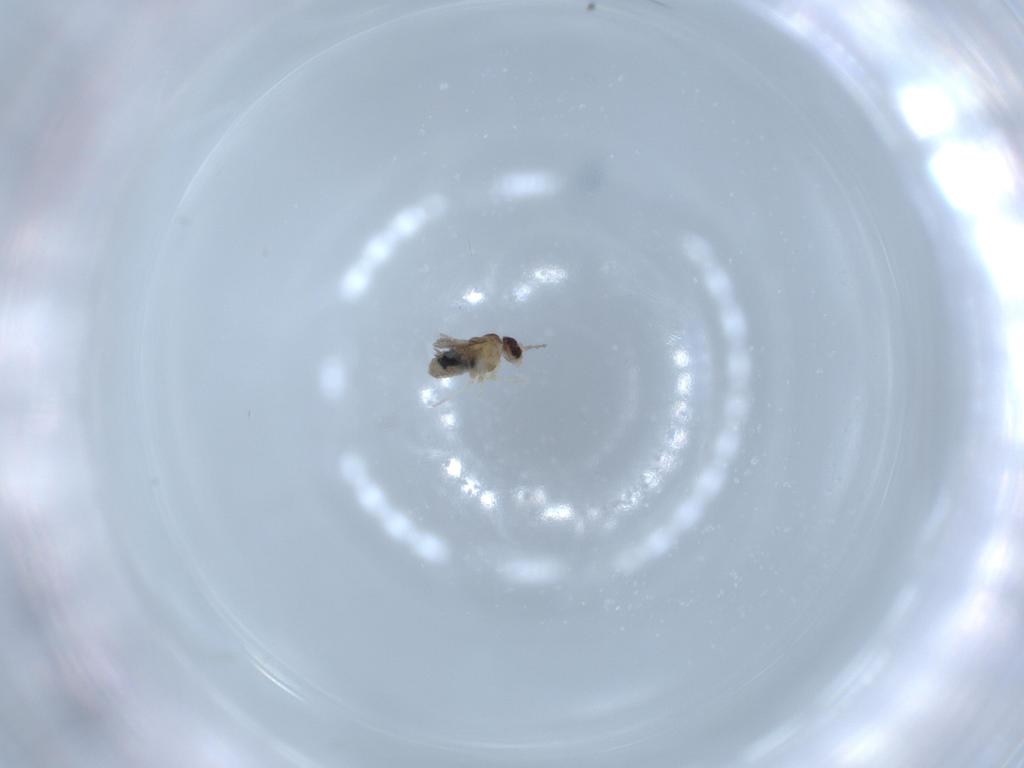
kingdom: Animalia
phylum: Arthropoda
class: Insecta
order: Diptera
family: Cecidomyiidae
